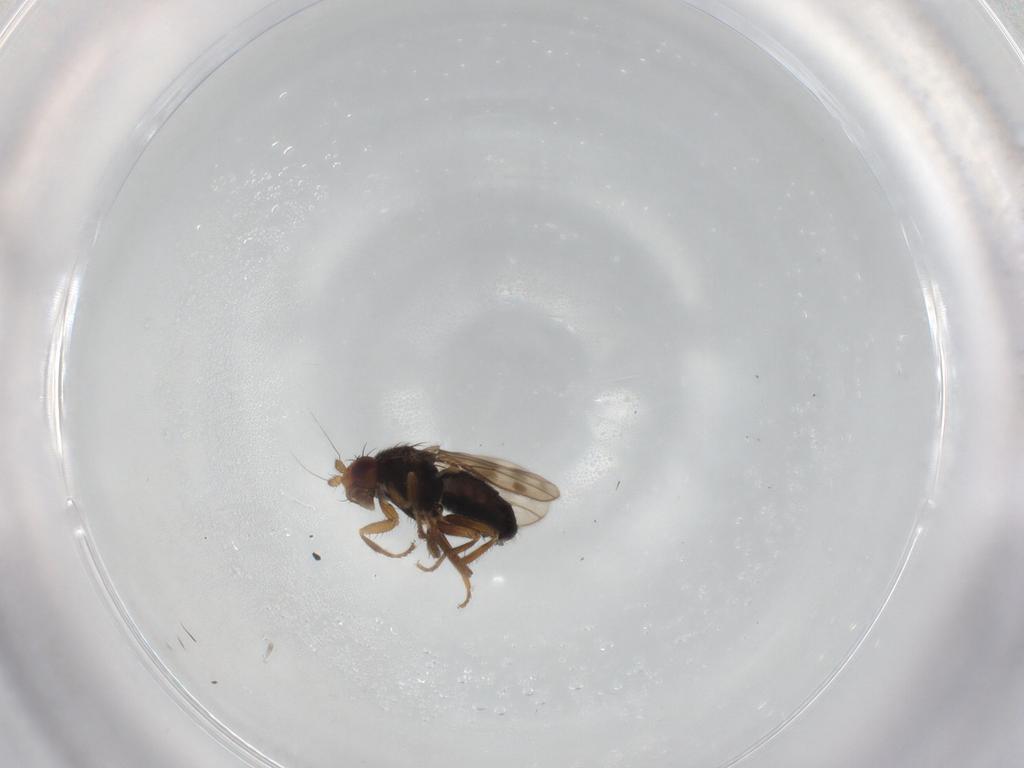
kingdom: Animalia
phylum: Arthropoda
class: Insecta
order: Diptera
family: Sphaeroceridae
